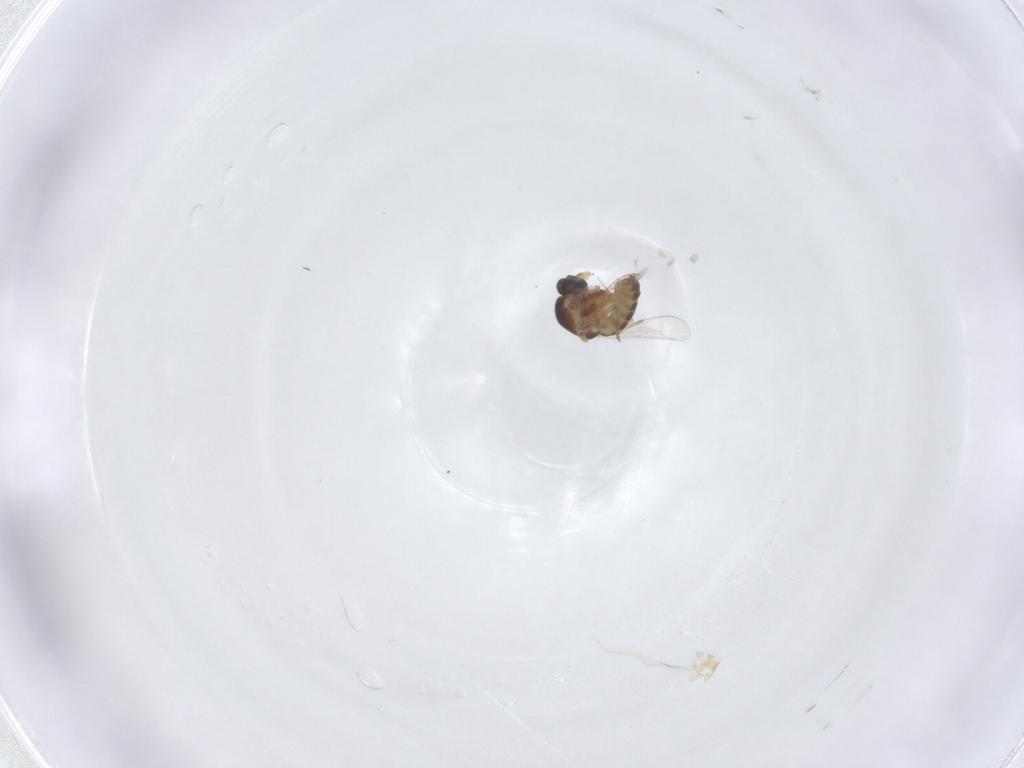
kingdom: Animalia
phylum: Arthropoda
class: Insecta
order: Diptera
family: Ceratopogonidae
